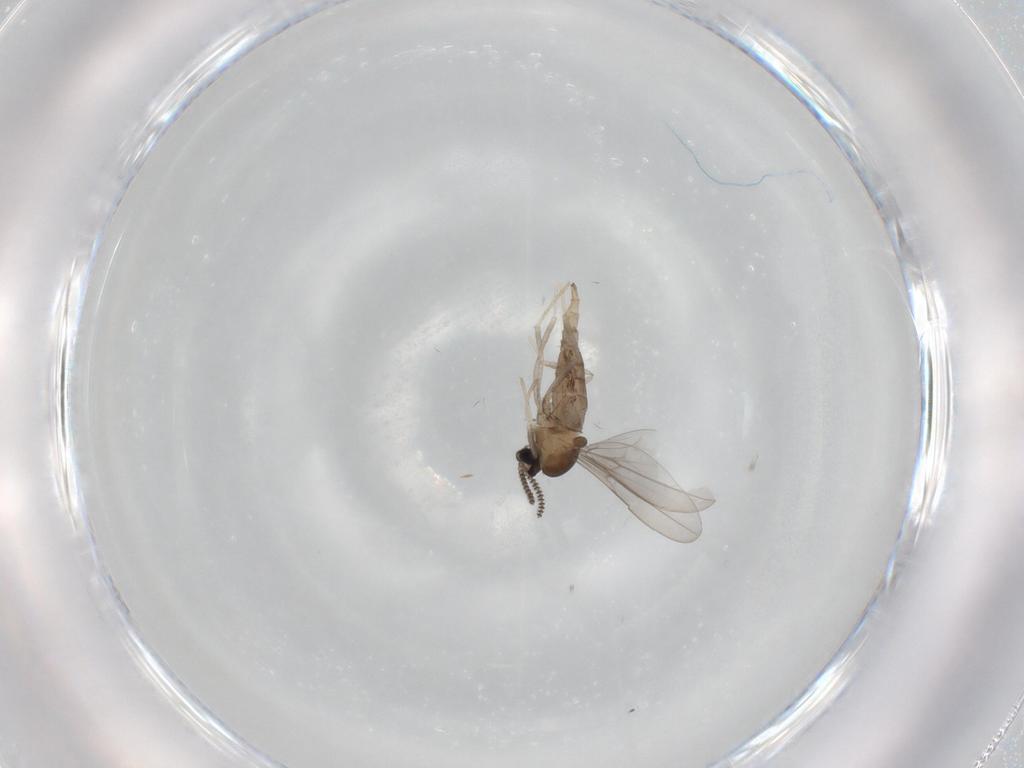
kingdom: Animalia
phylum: Arthropoda
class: Insecta
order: Diptera
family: Cecidomyiidae
